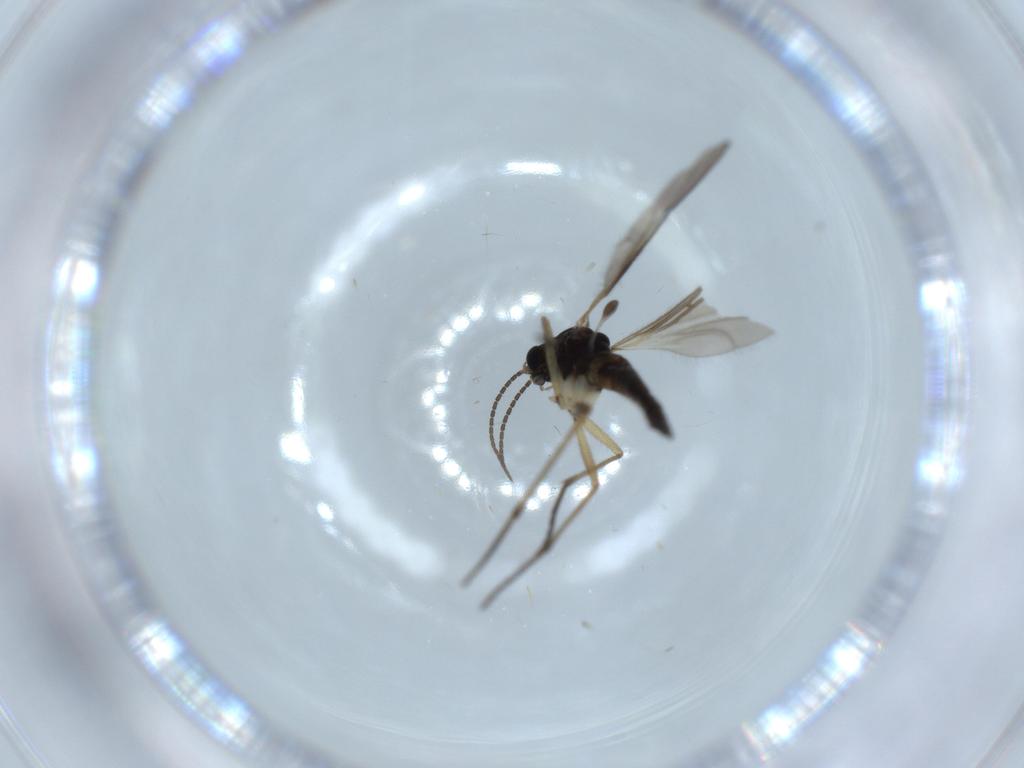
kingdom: Animalia
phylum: Arthropoda
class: Insecta
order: Diptera
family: Sciaridae
